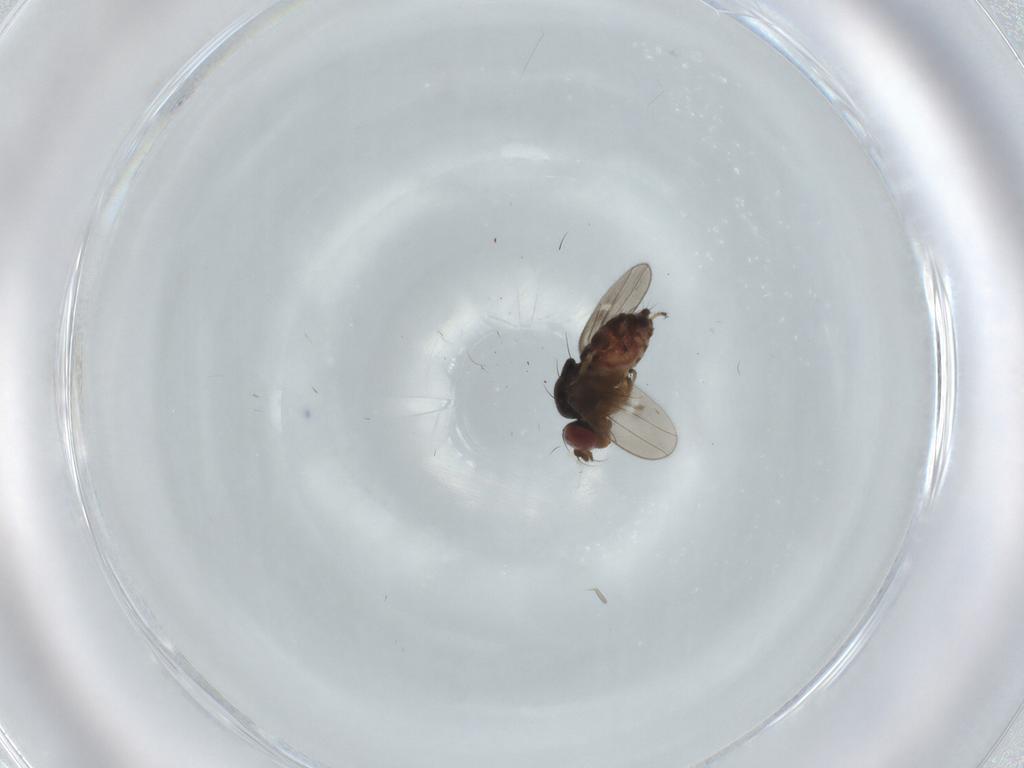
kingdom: Animalia
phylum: Arthropoda
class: Insecta
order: Diptera
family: Ephydridae
